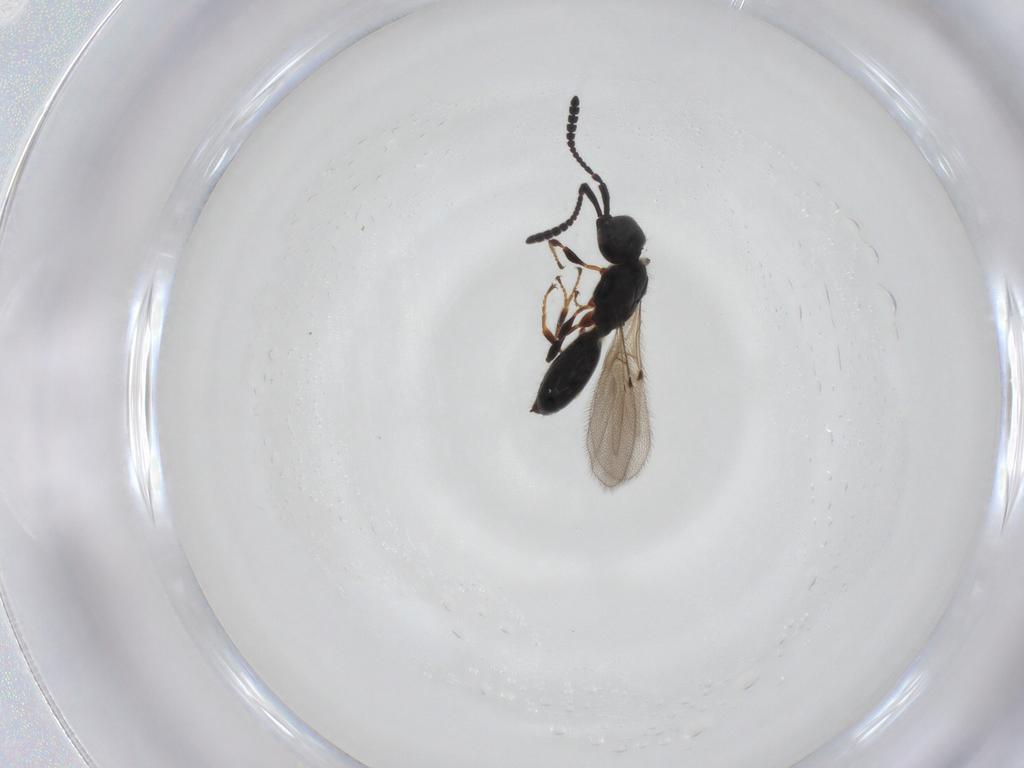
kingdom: Animalia
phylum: Arthropoda
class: Insecta
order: Hymenoptera
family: Diapriidae
